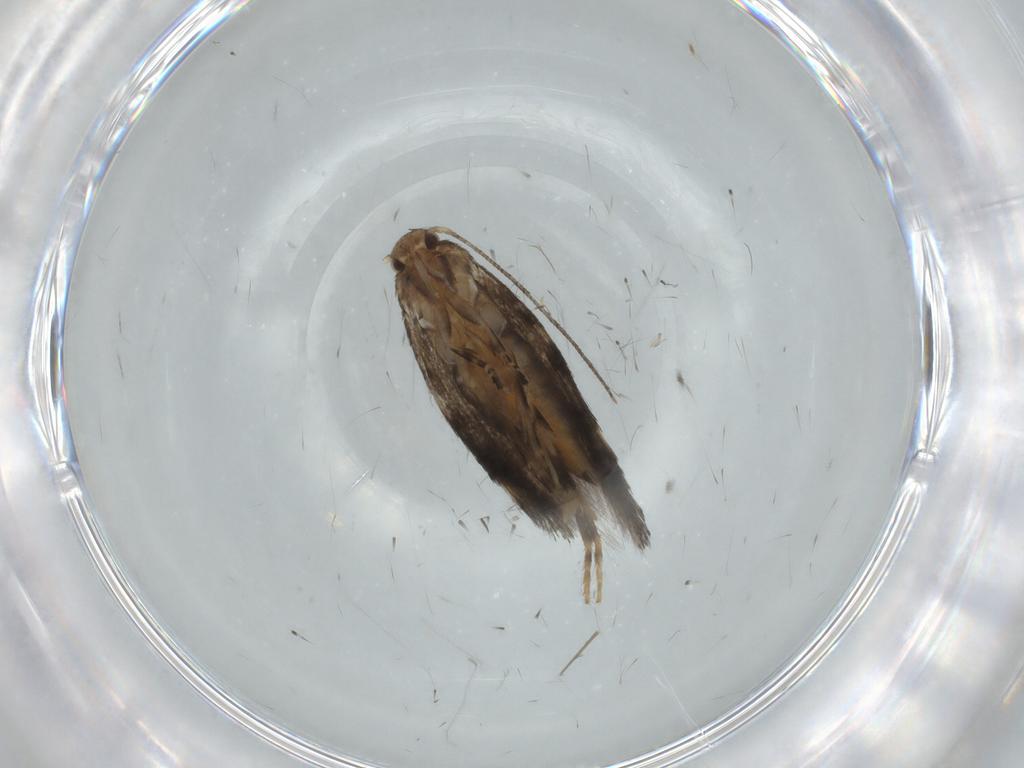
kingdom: Animalia
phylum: Arthropoda
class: Insecta
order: Lepidoptera
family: Elachistidae
